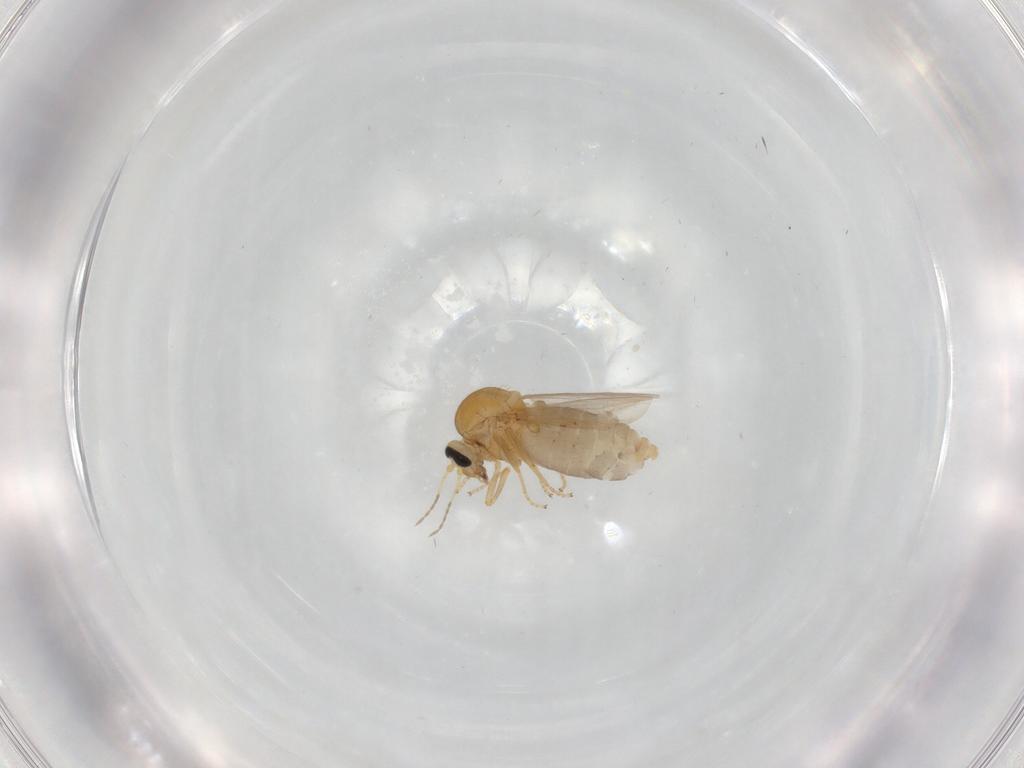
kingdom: Animalia
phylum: Arthropoda
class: Insecta
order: Diptera
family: Ceratopogonidae
